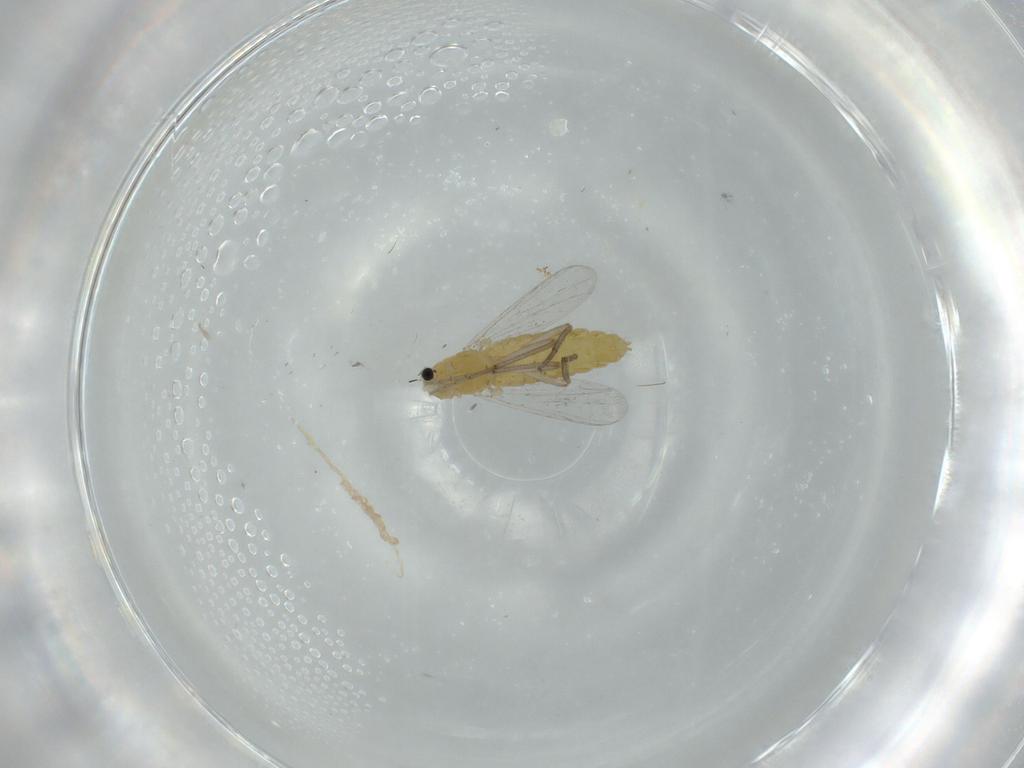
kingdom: Animalia
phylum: Arthropoda
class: Insecta
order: Diptera
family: Chironomidae
